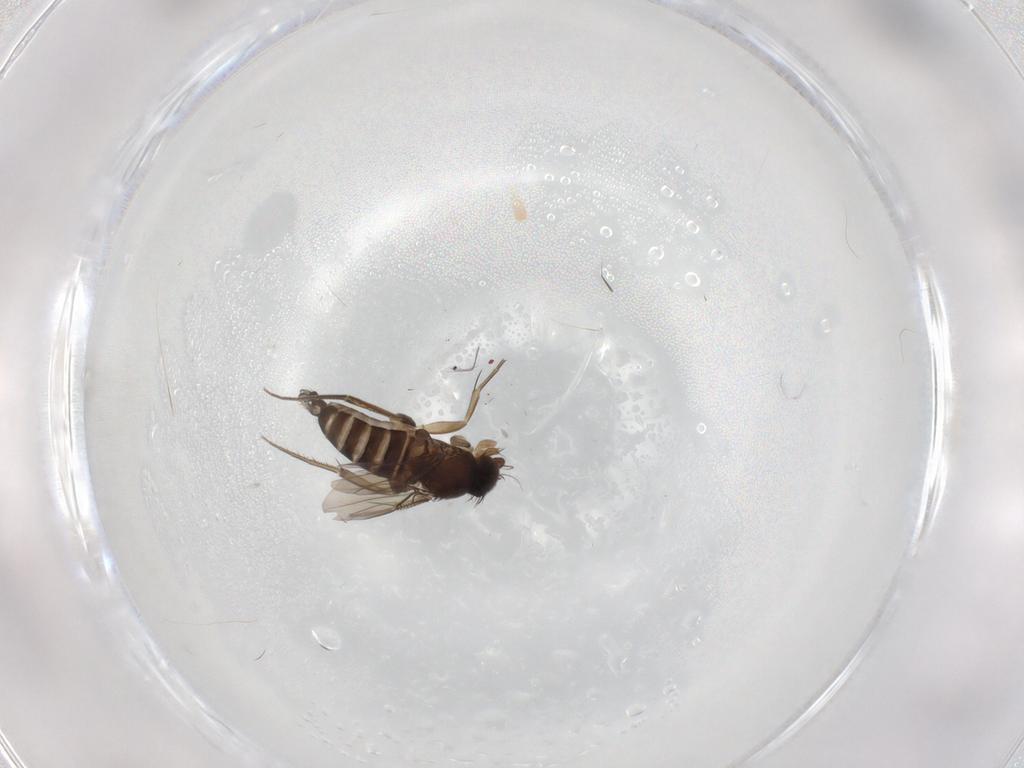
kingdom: Animalia
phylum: Arthropoda
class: Insecta
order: Diptera
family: Phoridae
